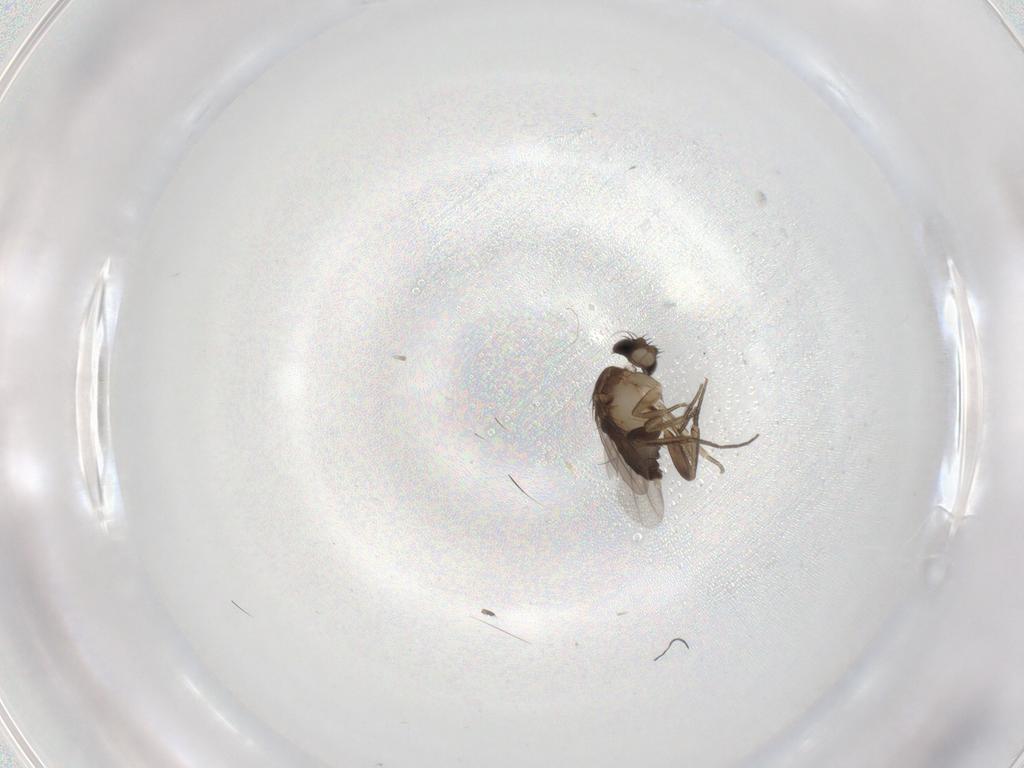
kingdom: Animalia
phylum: Arthropoda
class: Insecta
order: Diptera
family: Phoridae
